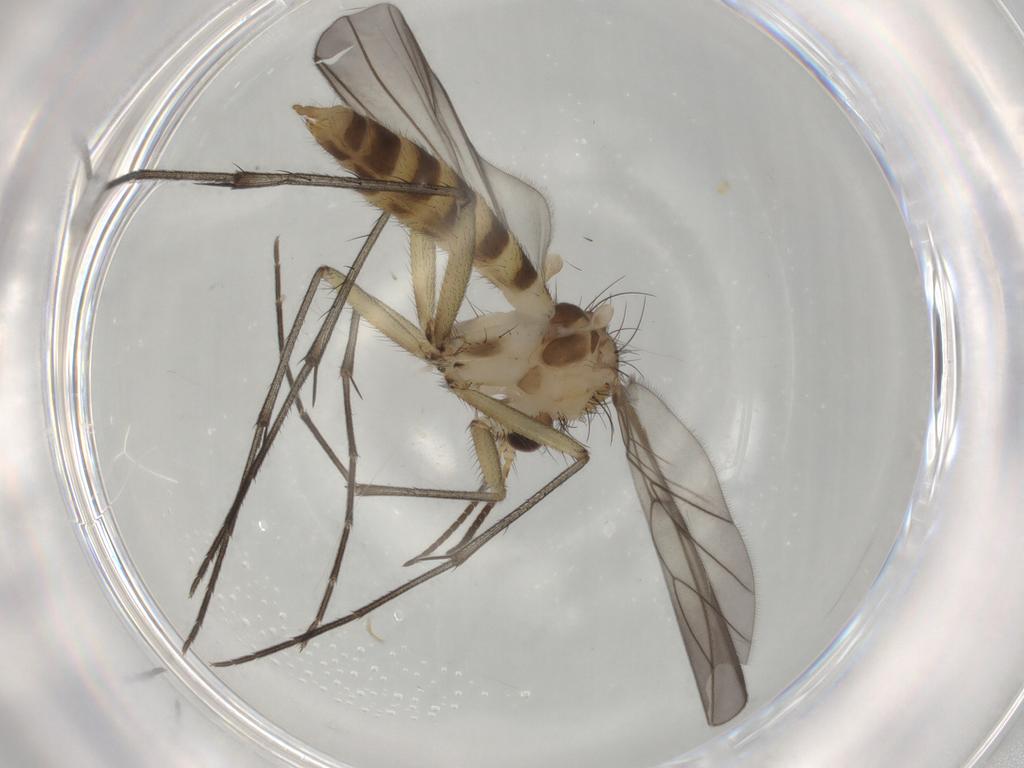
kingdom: Animalia
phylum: Arthropoda
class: Insecta
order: Diptera
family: Mycetophilidae
